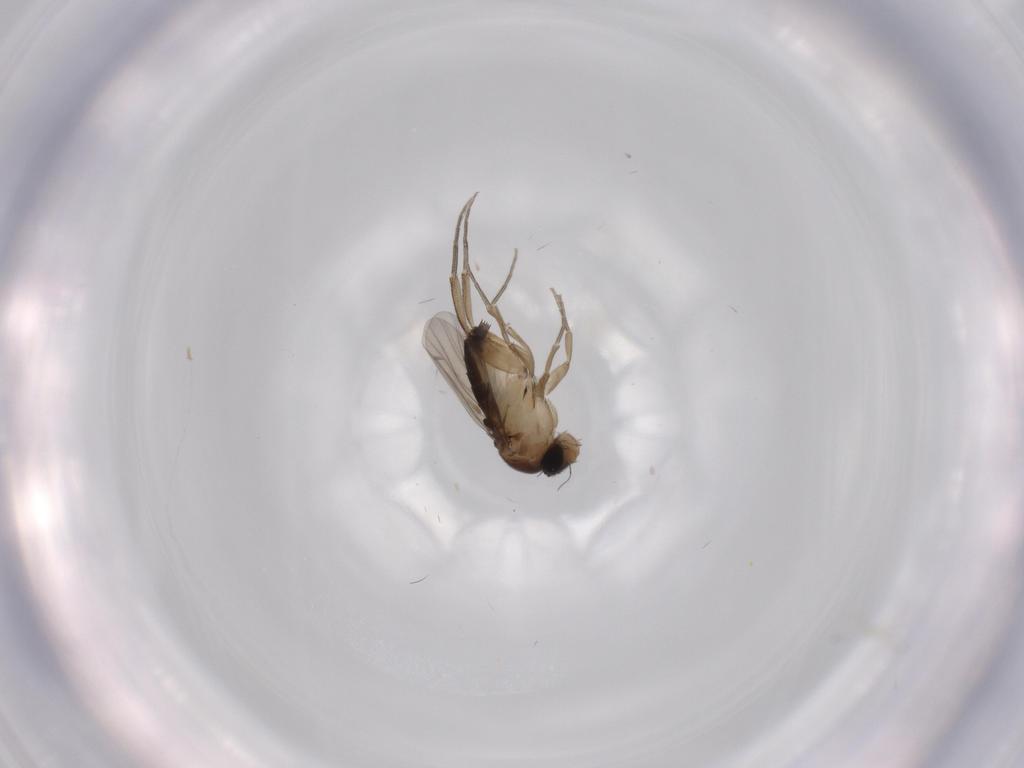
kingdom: Animalia
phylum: Arthropoda
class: Insecta
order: Diptera
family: Phoridae
